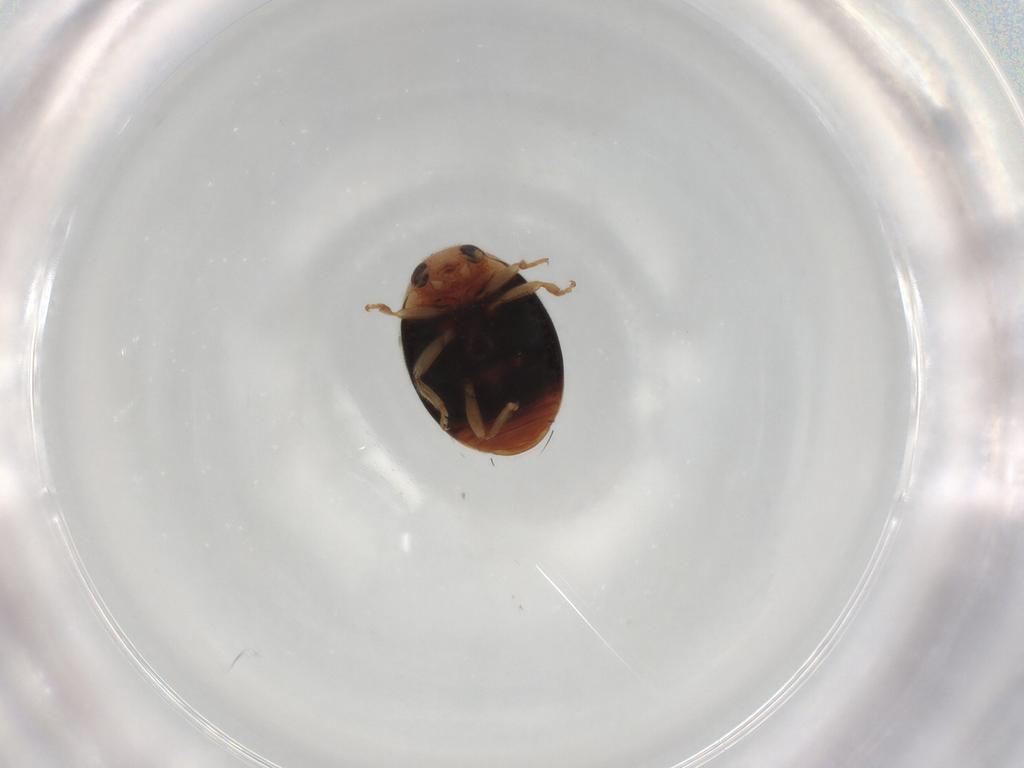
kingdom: Animalia
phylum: Arthropoda
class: Insecta
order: Coleoptera
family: Coccinellidae
